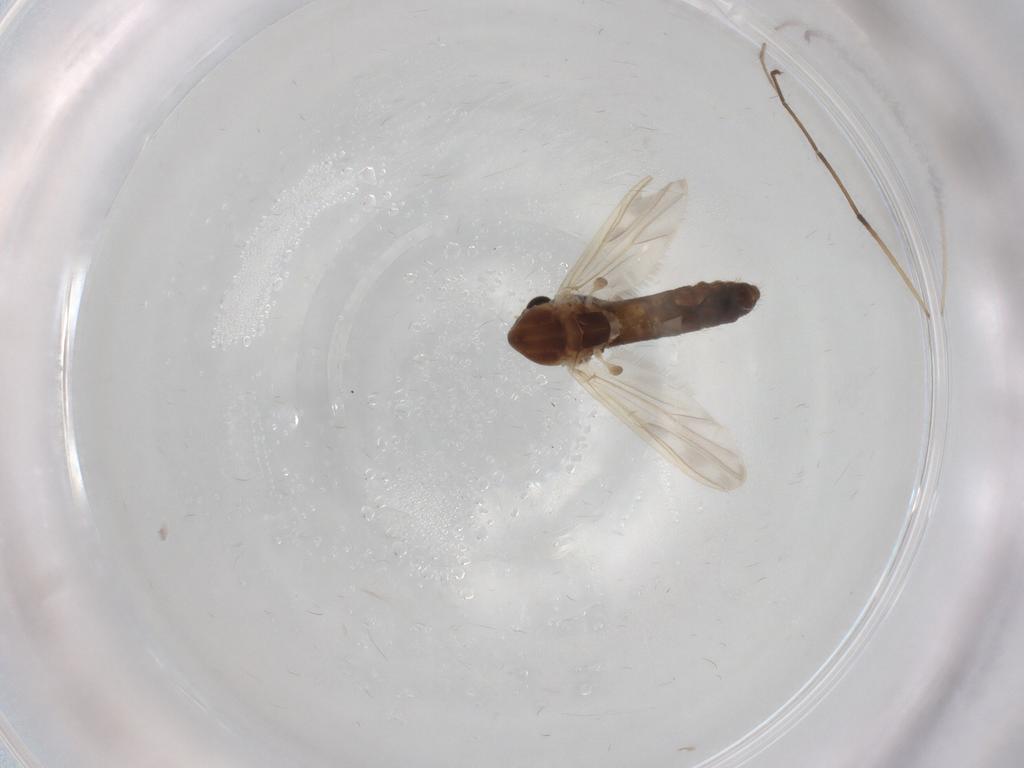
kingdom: Animalia
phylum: Arthropoda
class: Insecta
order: Diptera
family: Chironomidae
